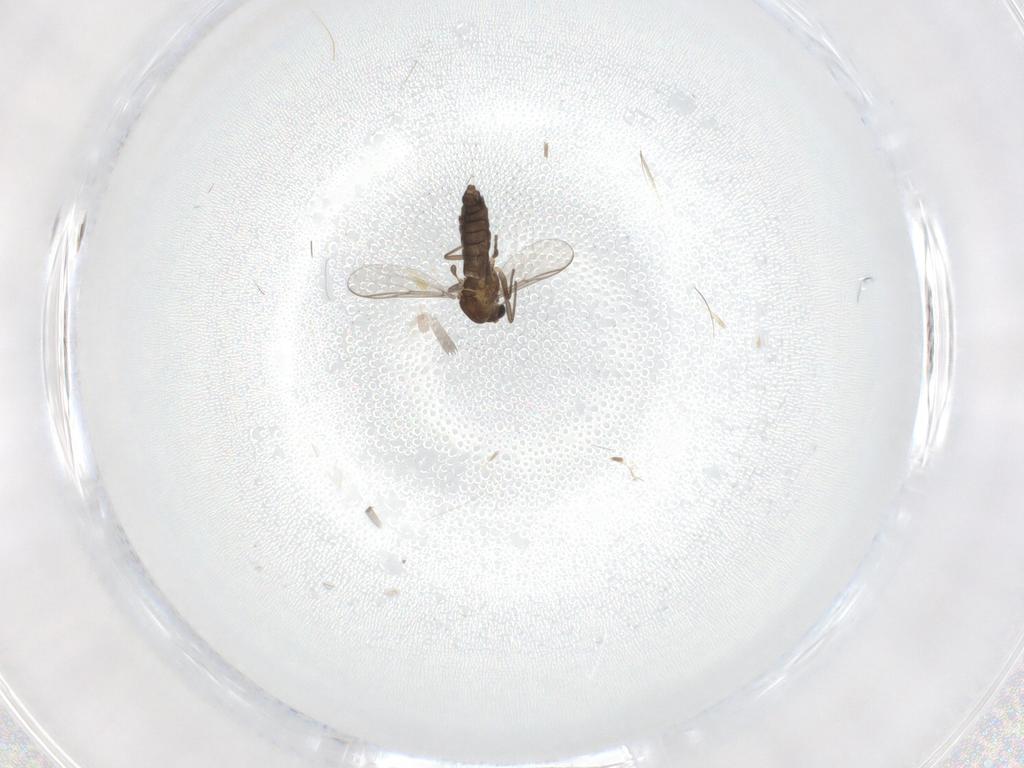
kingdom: Animalia
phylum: Arthropoda
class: Insecta
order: Diptera
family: Chironomidae
